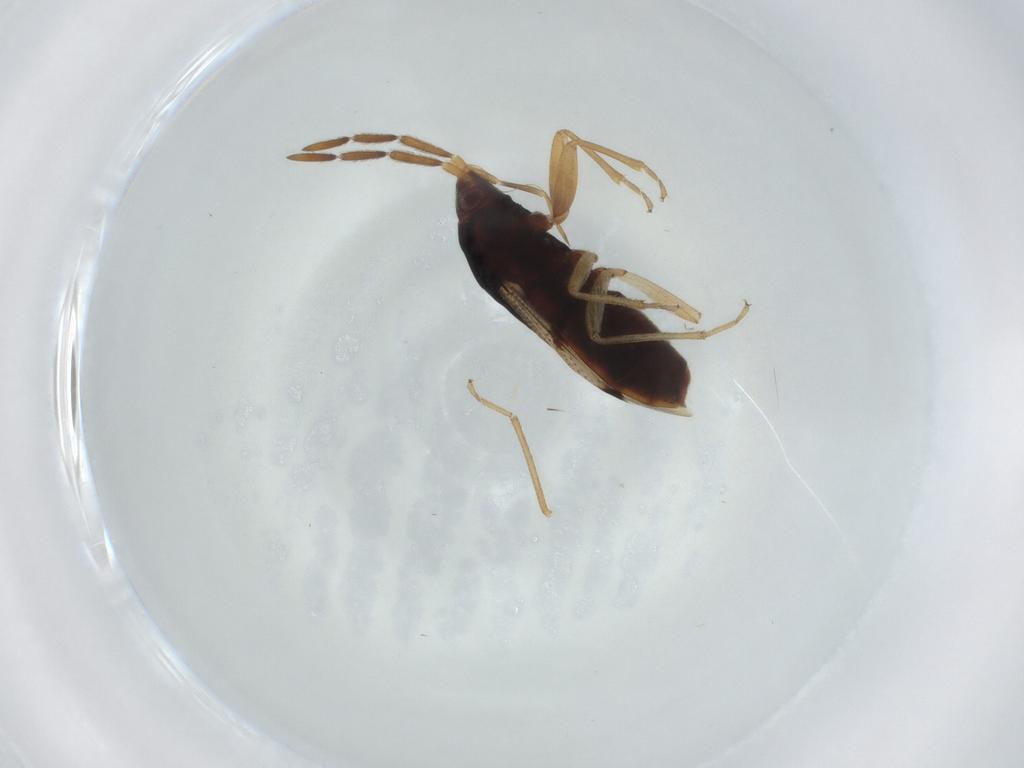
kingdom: Animalia
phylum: Arthropoda
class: Insecta
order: Hemiptera
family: Rhyparochromidae
